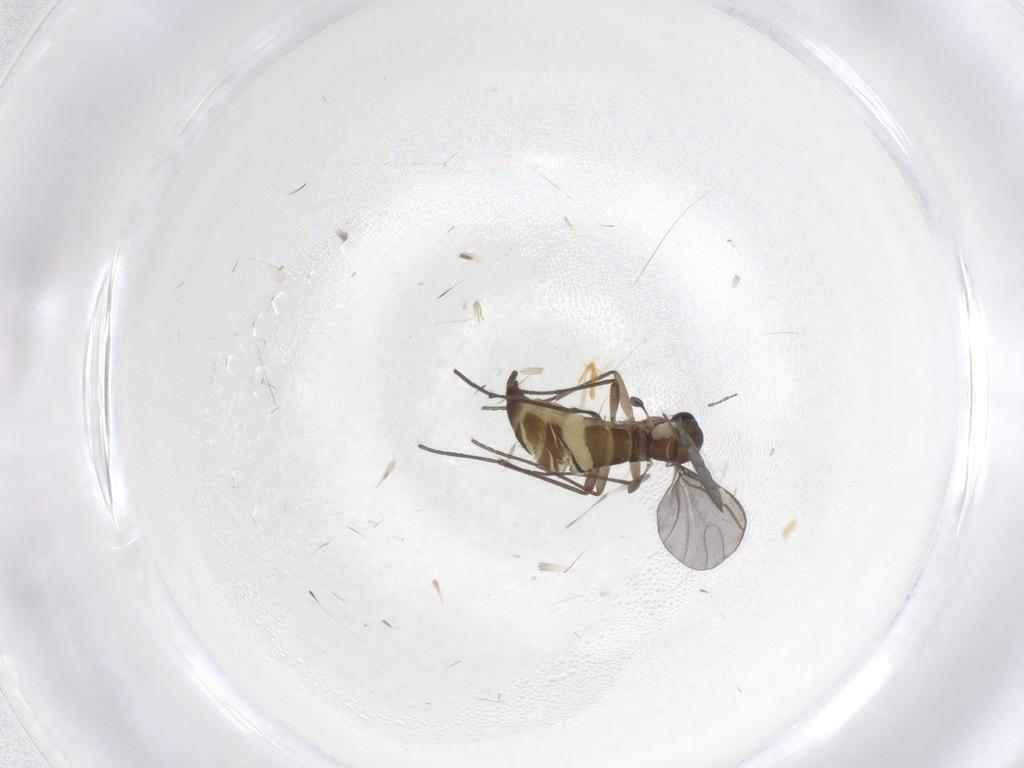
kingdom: Animalia
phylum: Arthropoda
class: Insecta
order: Diptera
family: Sciaridae
